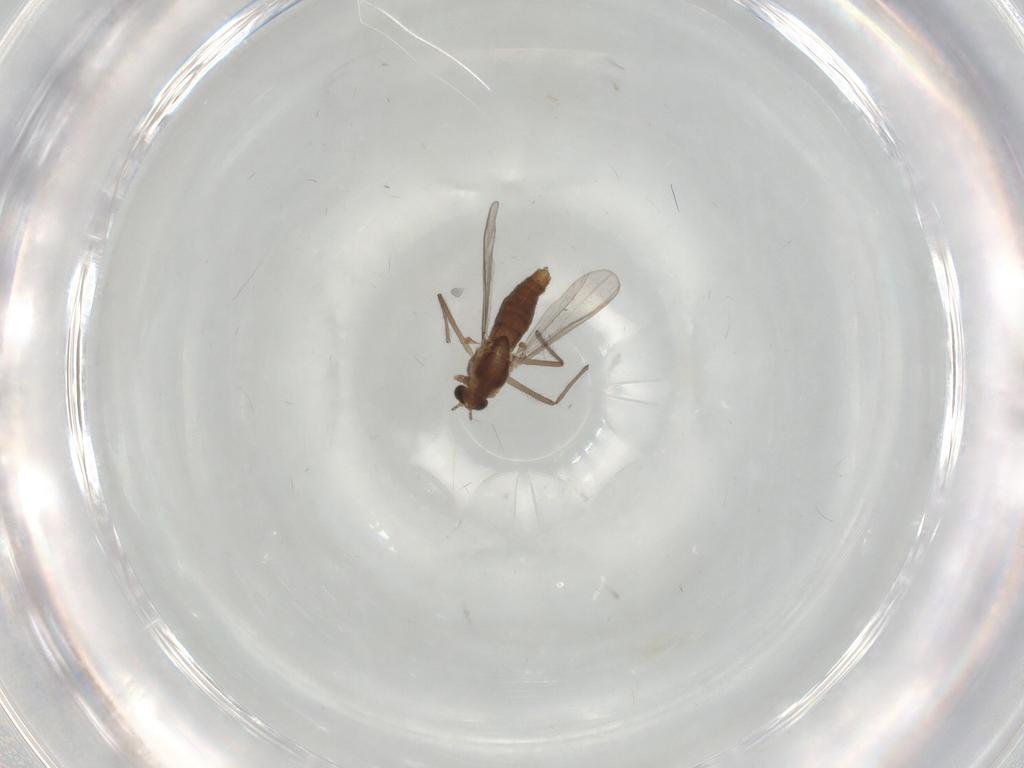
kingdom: Animalia
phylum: Arthropoda
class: Insecta
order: Diptera
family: Chironomidae
